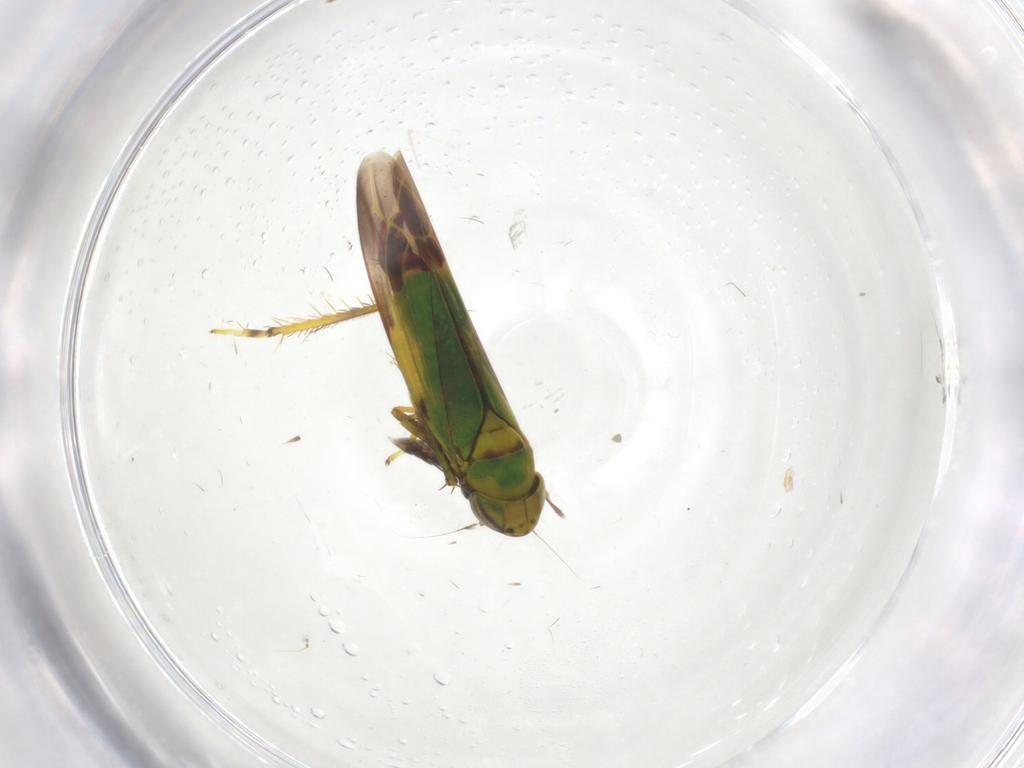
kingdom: Animalia
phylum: Arthropoda
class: Insecta
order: Hemiptera
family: Cicadellidae
